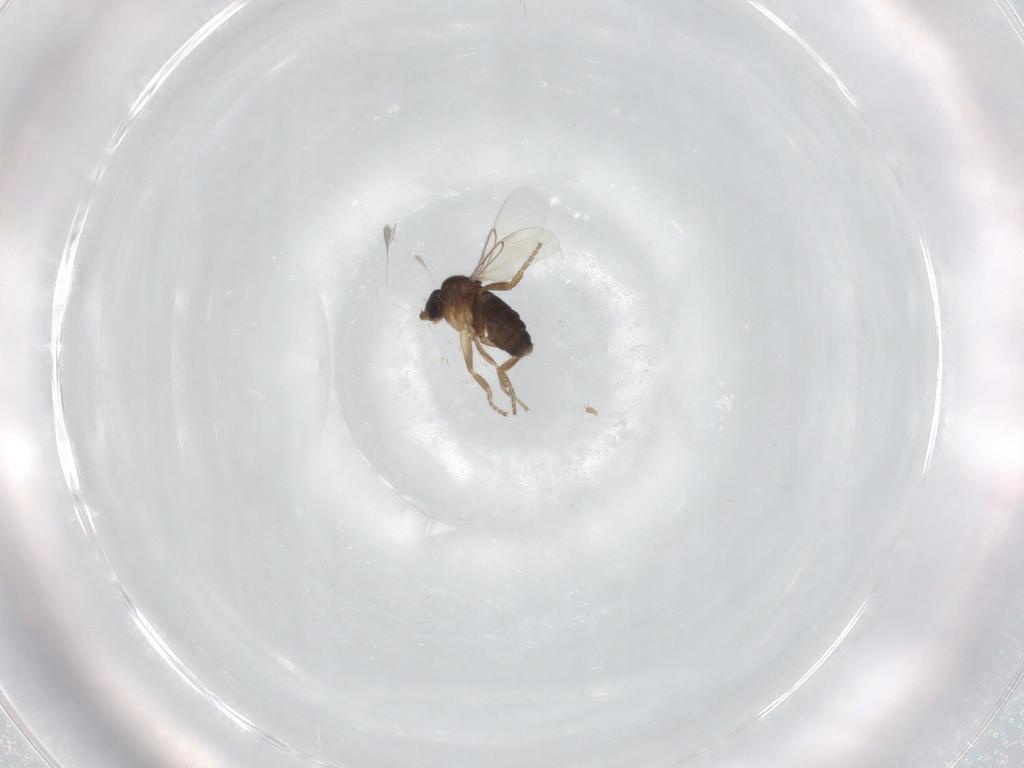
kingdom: Animalia
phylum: Arthropoda
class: Insecta
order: Diptera
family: Phoridae
